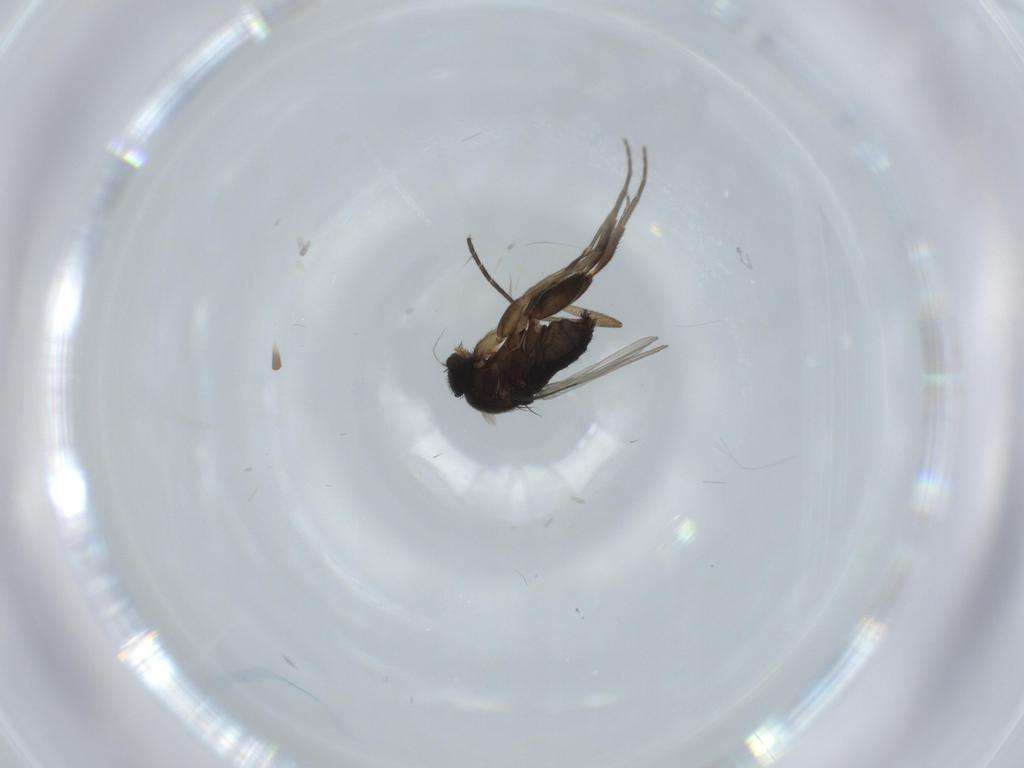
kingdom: Animalia
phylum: Arthropoda
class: Insecta
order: Diptera
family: Phoridae
